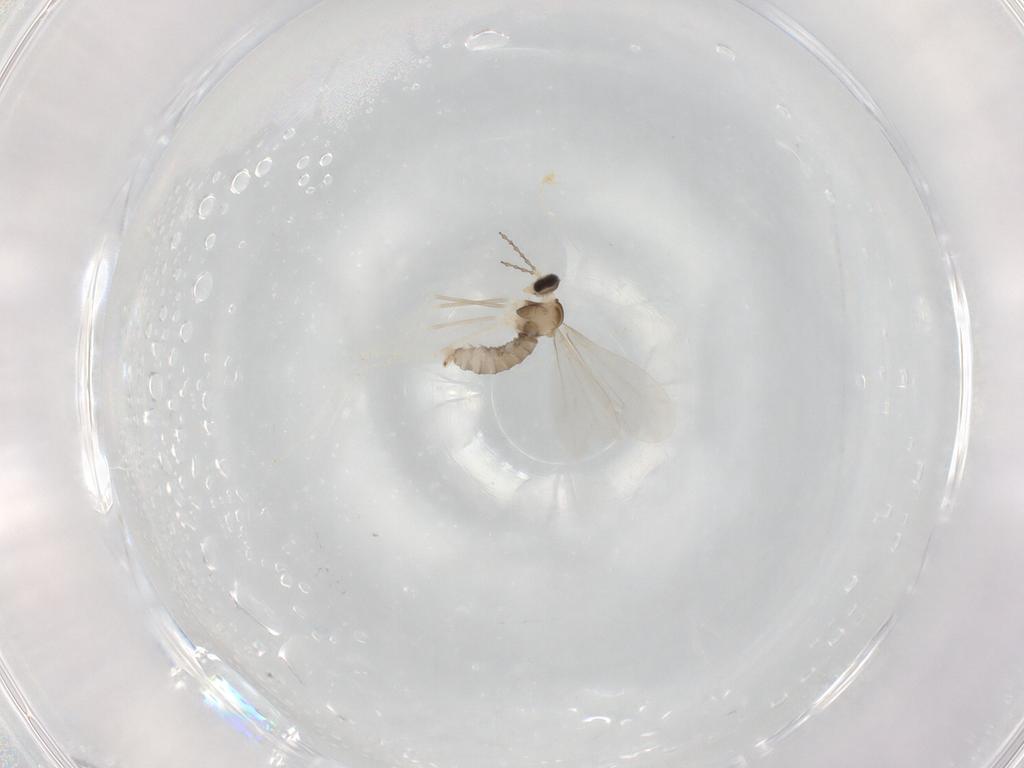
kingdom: Animalia
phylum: Arthropoda
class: Insecta
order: Diptera
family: Cecidomyiidae
